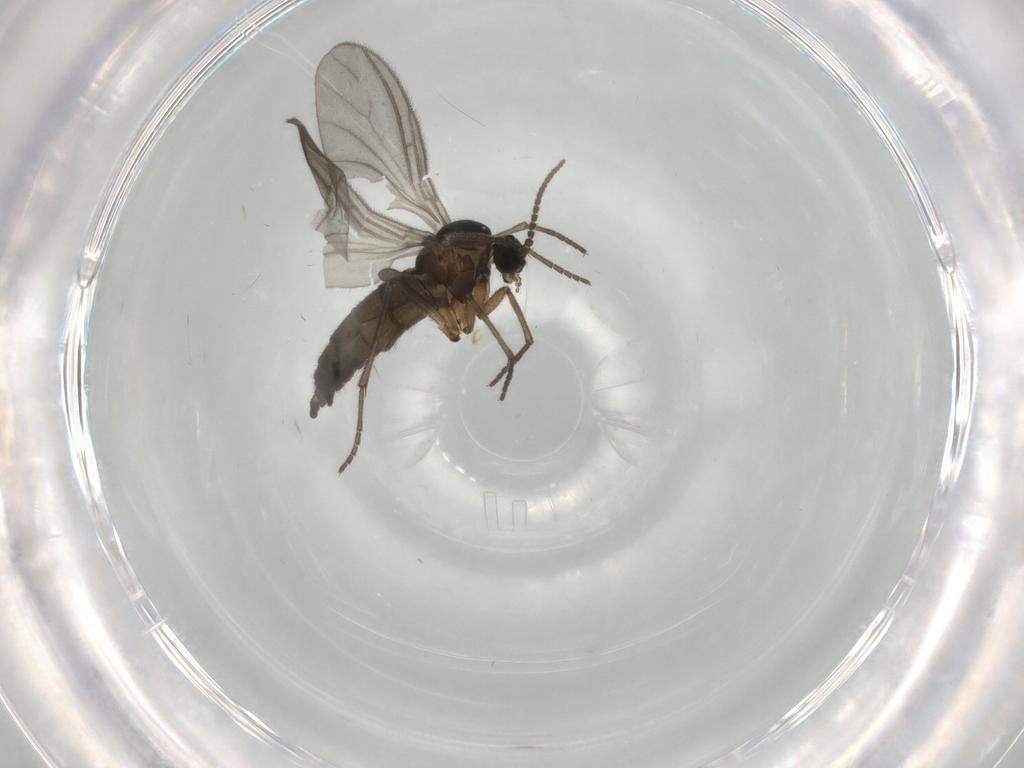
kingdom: Animalia
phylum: Arthropoda
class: Insecta
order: Diptera
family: Sciaridae
